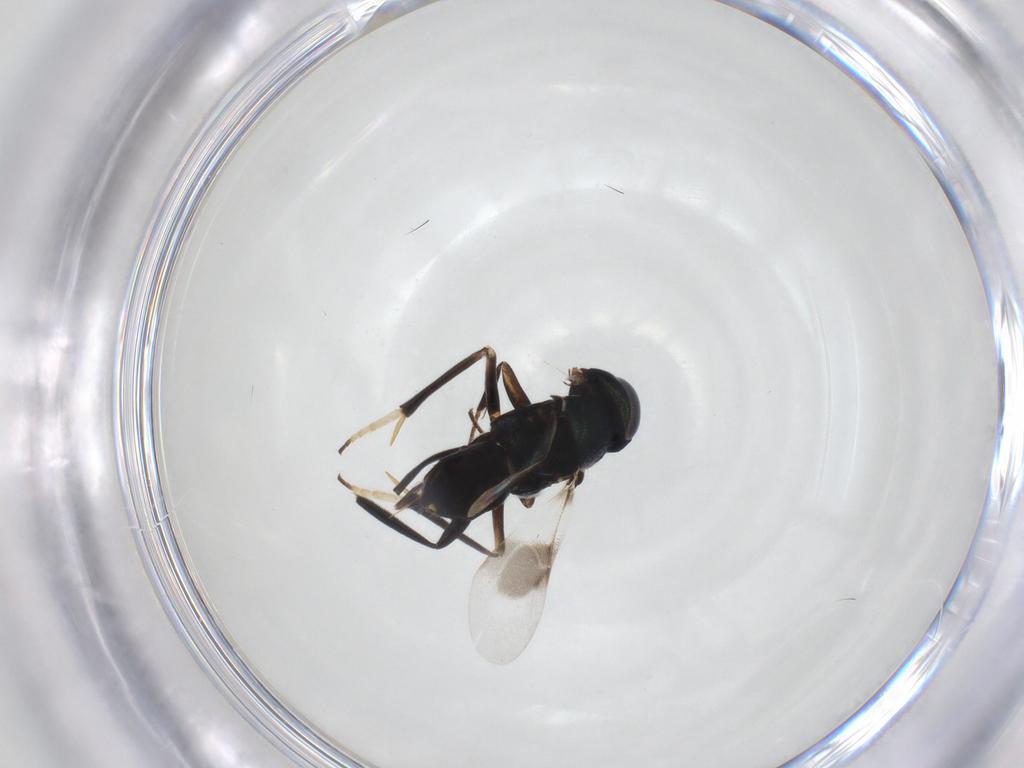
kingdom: Animalia
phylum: Arthropoda
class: Insecta
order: Hymenoptera
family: Encyrtidae
